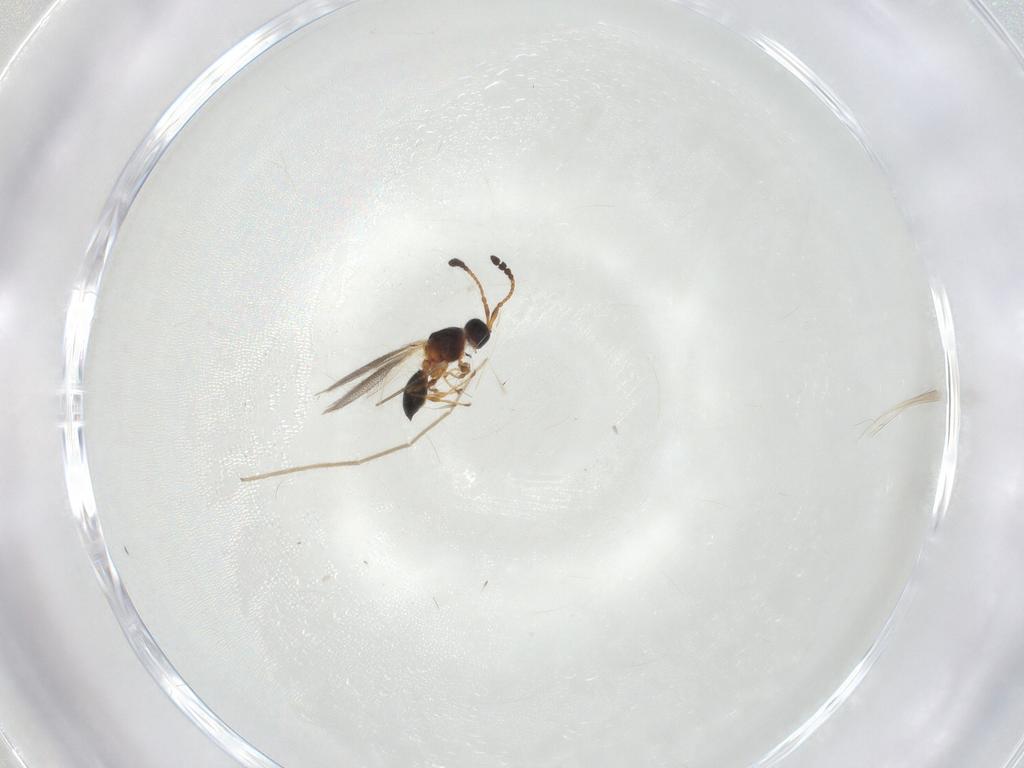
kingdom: Animalia
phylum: Arthropoda
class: Insecta
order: Hymenoptera
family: Diapriidae
